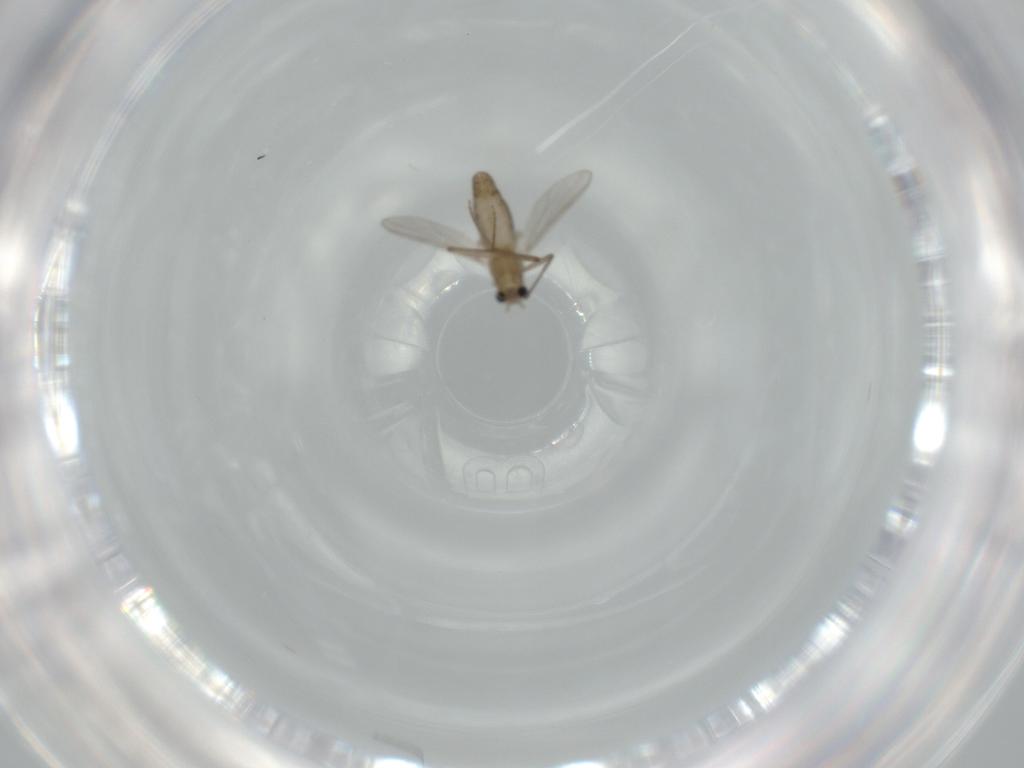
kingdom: Animalia
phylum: Arthropoda
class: Insecta
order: Diptera
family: Chironomidae
